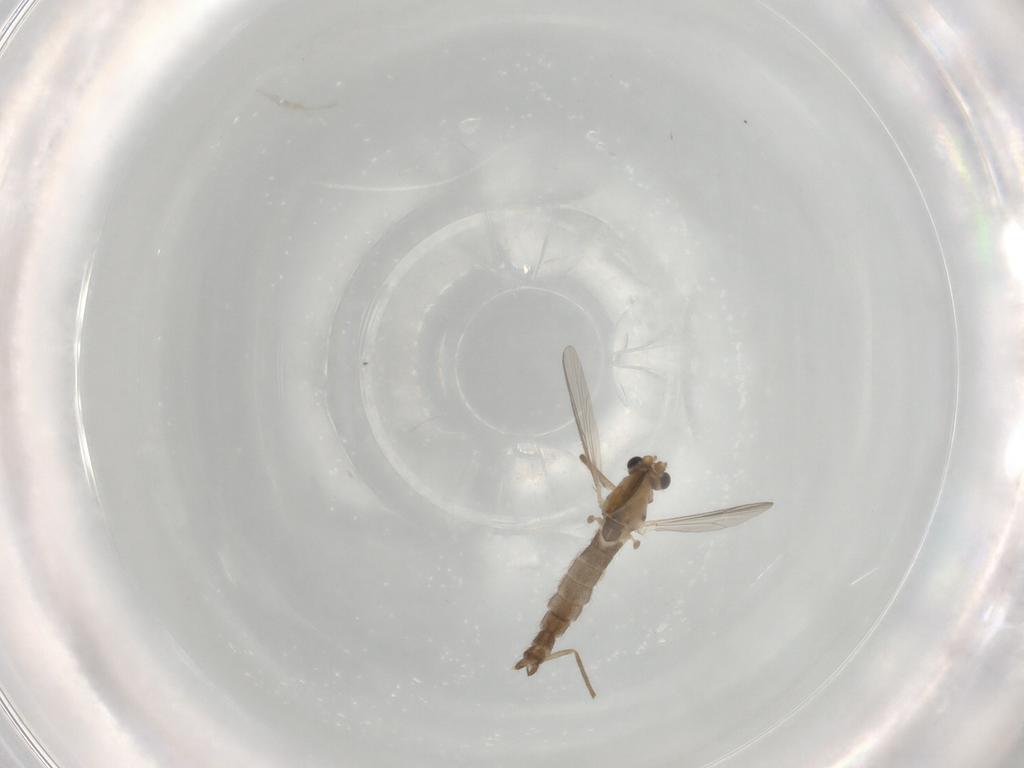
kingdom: Animalia
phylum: Arthropoda
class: Insecta
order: Diptera
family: Chironomidae
